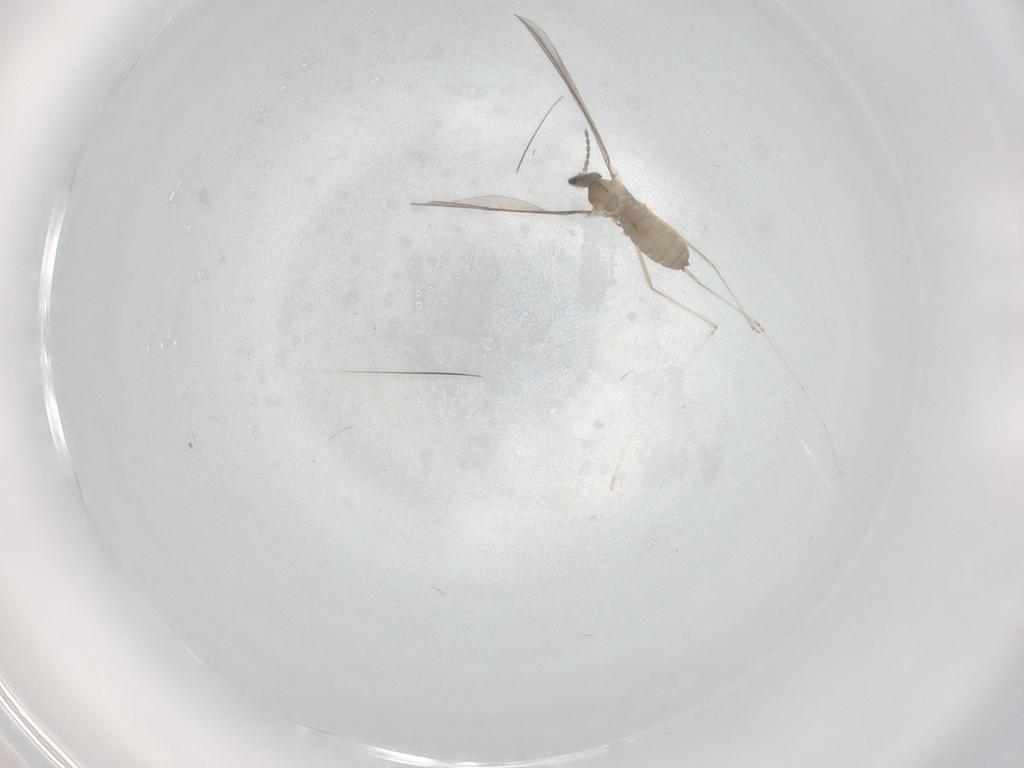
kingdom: Animalia
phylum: Arthropoda
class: Insecta
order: Diptera
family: Cecidomyiidae
